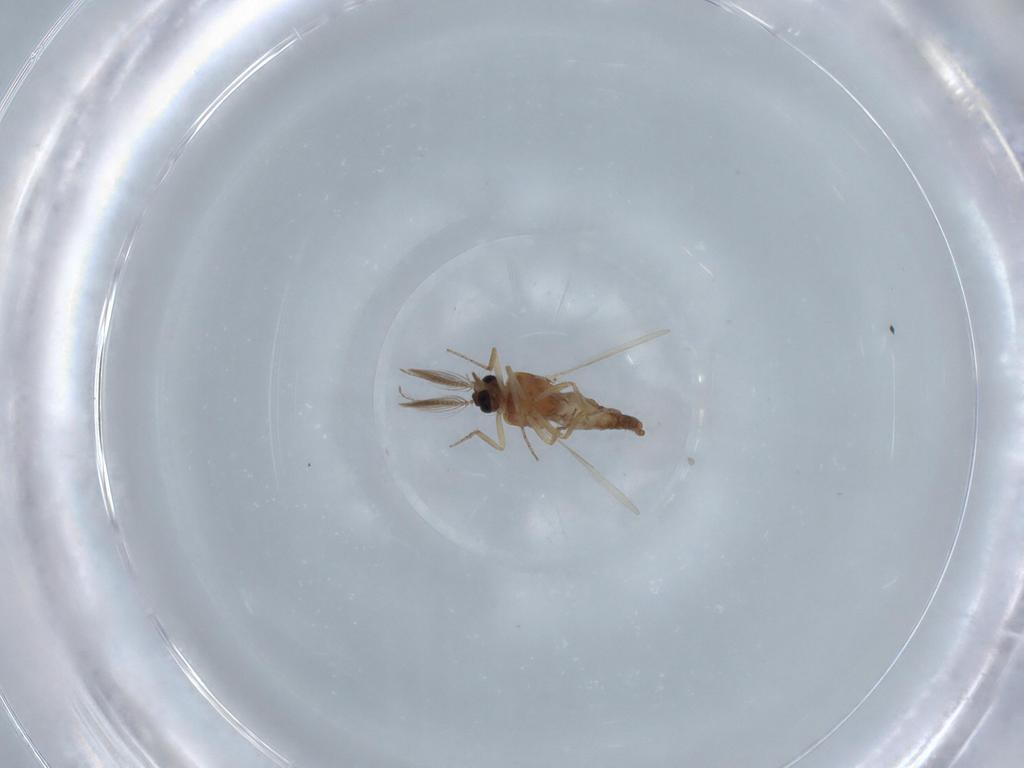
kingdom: Animalia
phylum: Arthropoda
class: Insecta
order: Diptera
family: Ceratopogonidae
